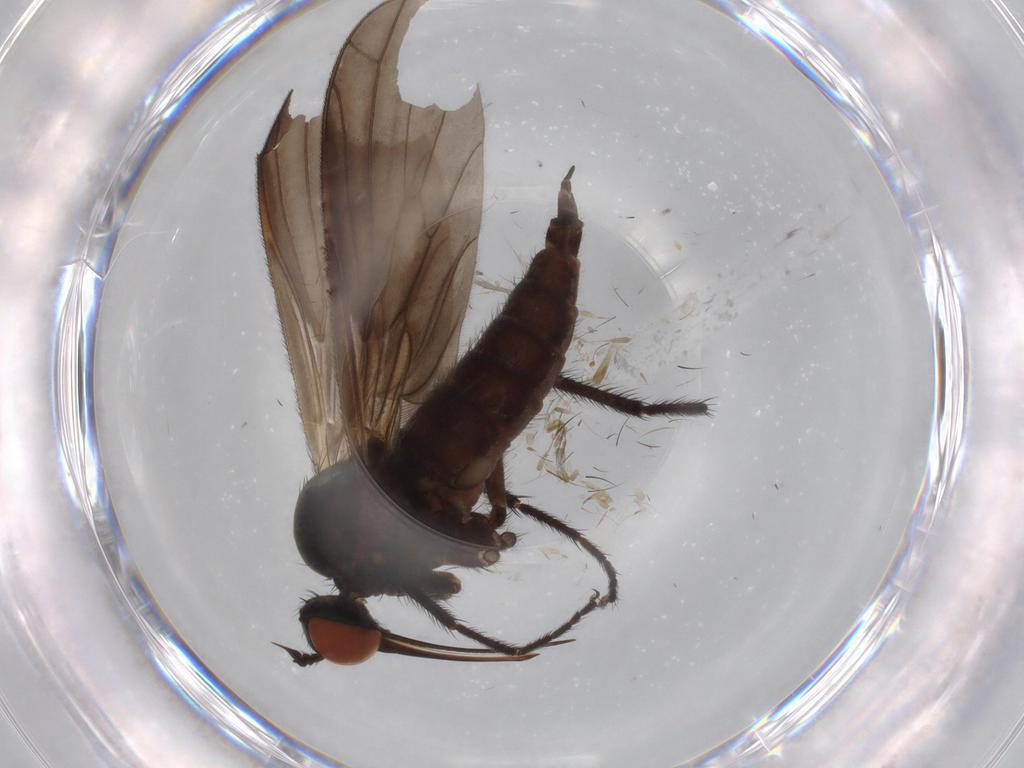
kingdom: Animalia
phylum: Arthropoda
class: Insecta
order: Diptera
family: Empididae
